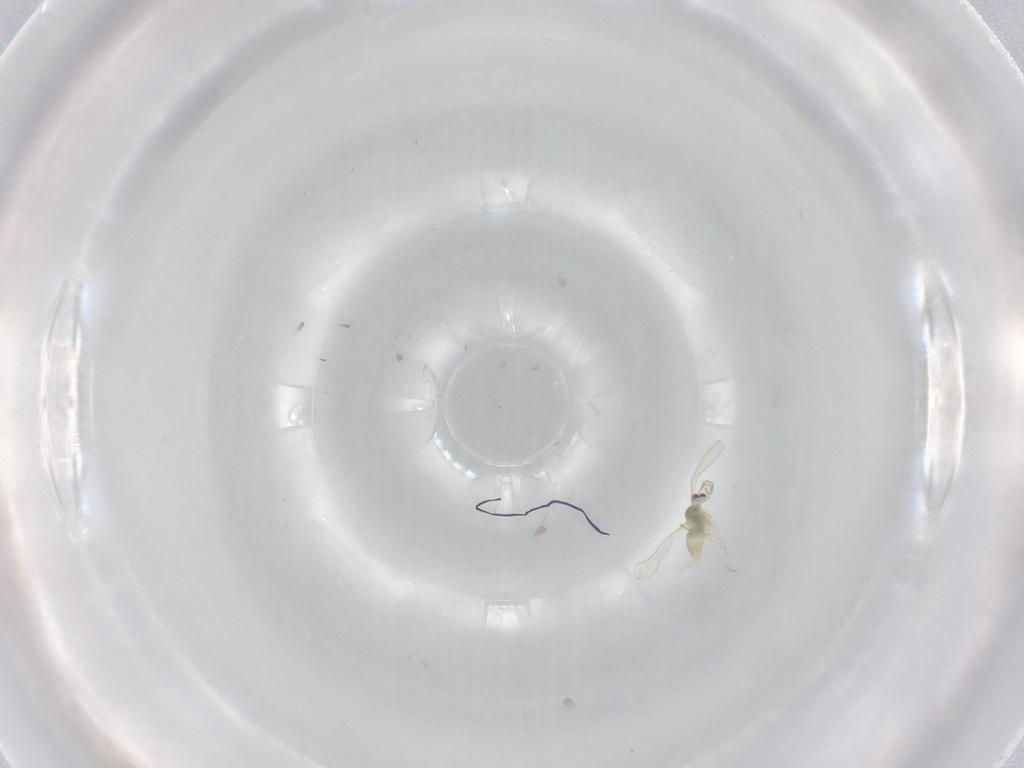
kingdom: Animalia
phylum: Arthropoda
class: Insecta
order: Diptera
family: Cecidomyiidae
